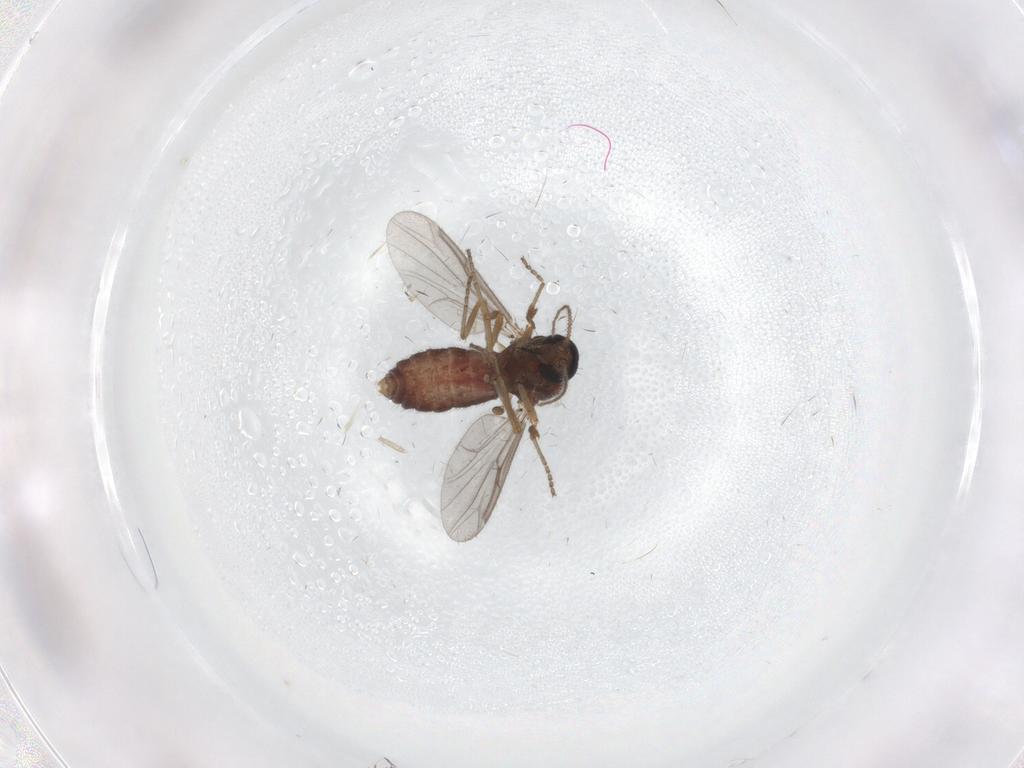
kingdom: Animalia
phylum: Arthropoda
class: Insecta
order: Diptera
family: Ceratopogonidae
